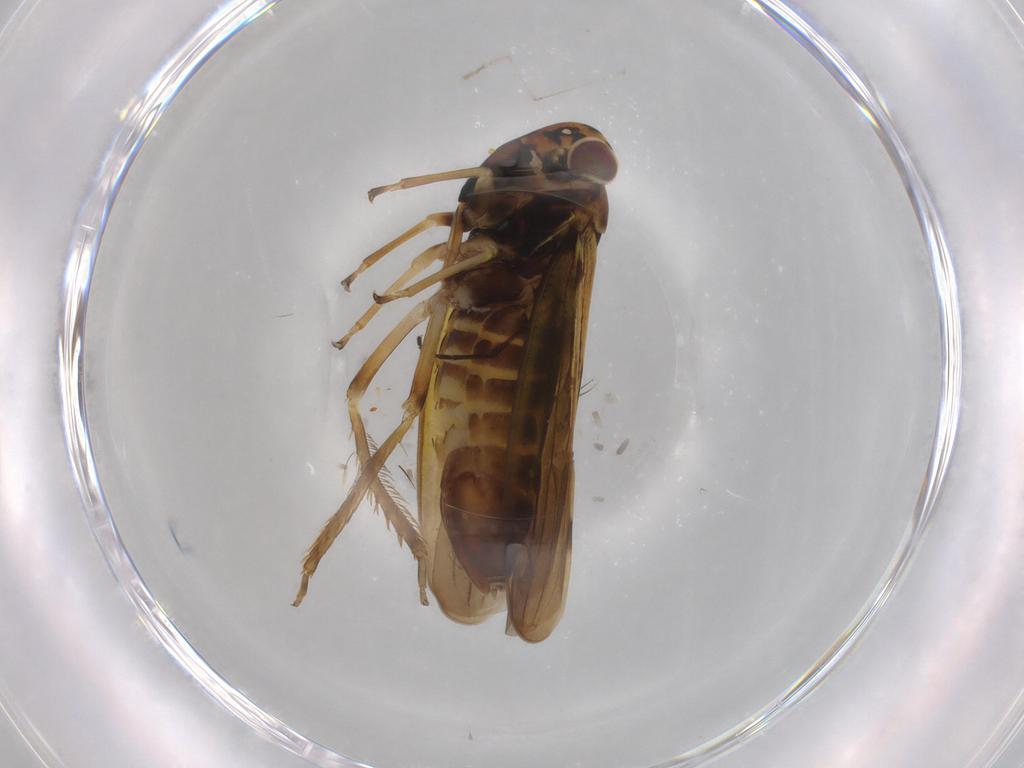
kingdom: Animalia
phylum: Arthropoda
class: Insecta
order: Hemiptera
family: Cicadellidae
